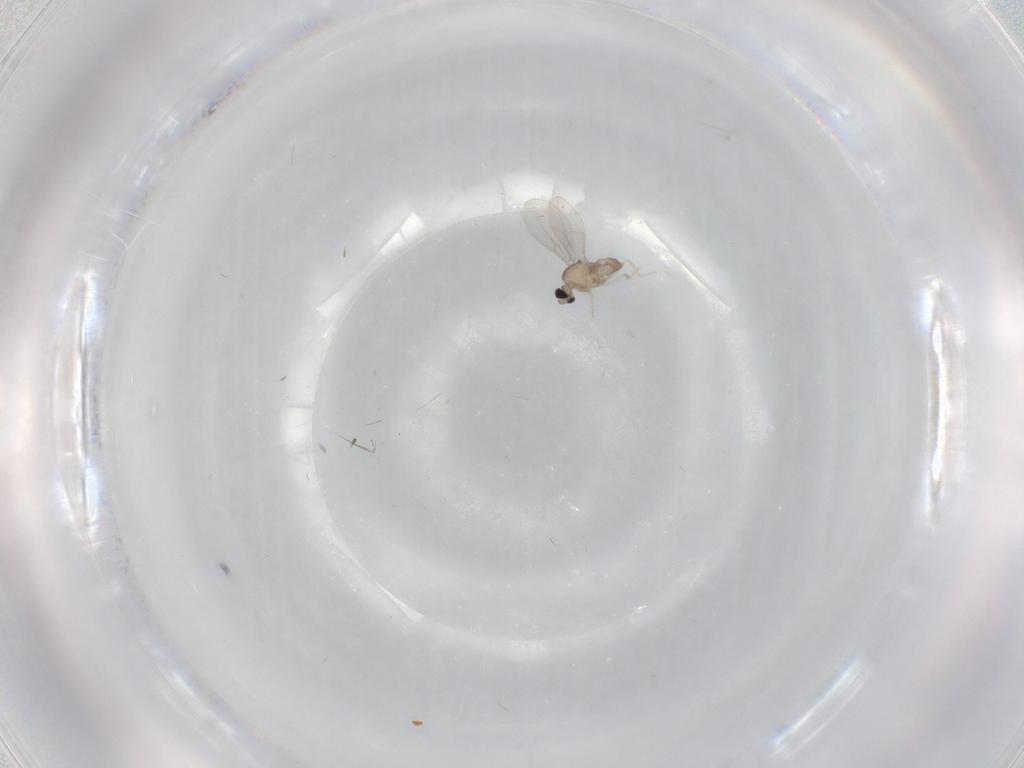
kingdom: Animalia
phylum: Arthropoda
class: Insecta
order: Diptera
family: Cecidomyiidae
